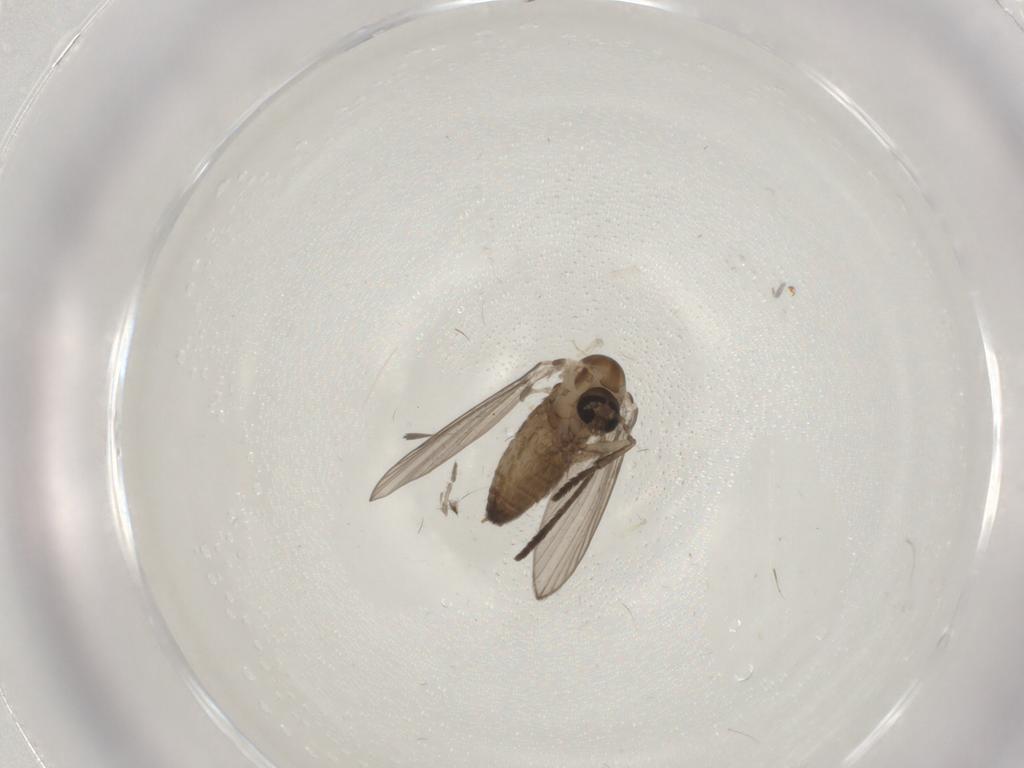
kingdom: Animalia
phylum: Arthropoda
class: Insecta
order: Diptera
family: Psychodidae
